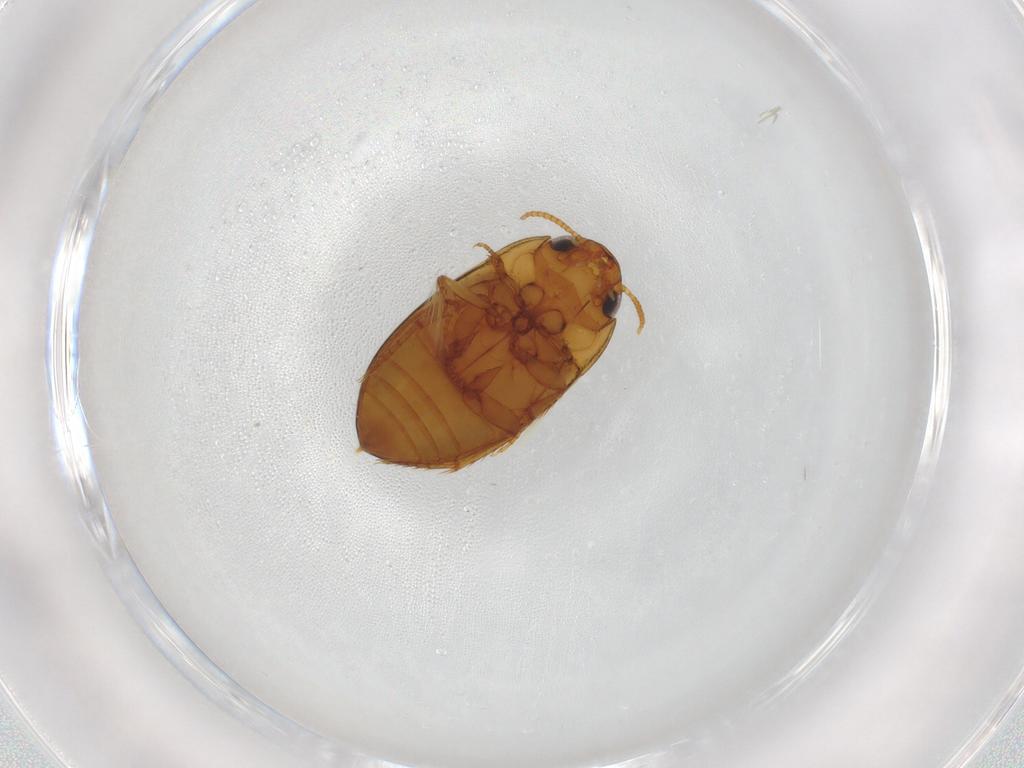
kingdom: Animalia
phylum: Arthropoda
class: Insecta
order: Coleoptera
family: Noteridae
